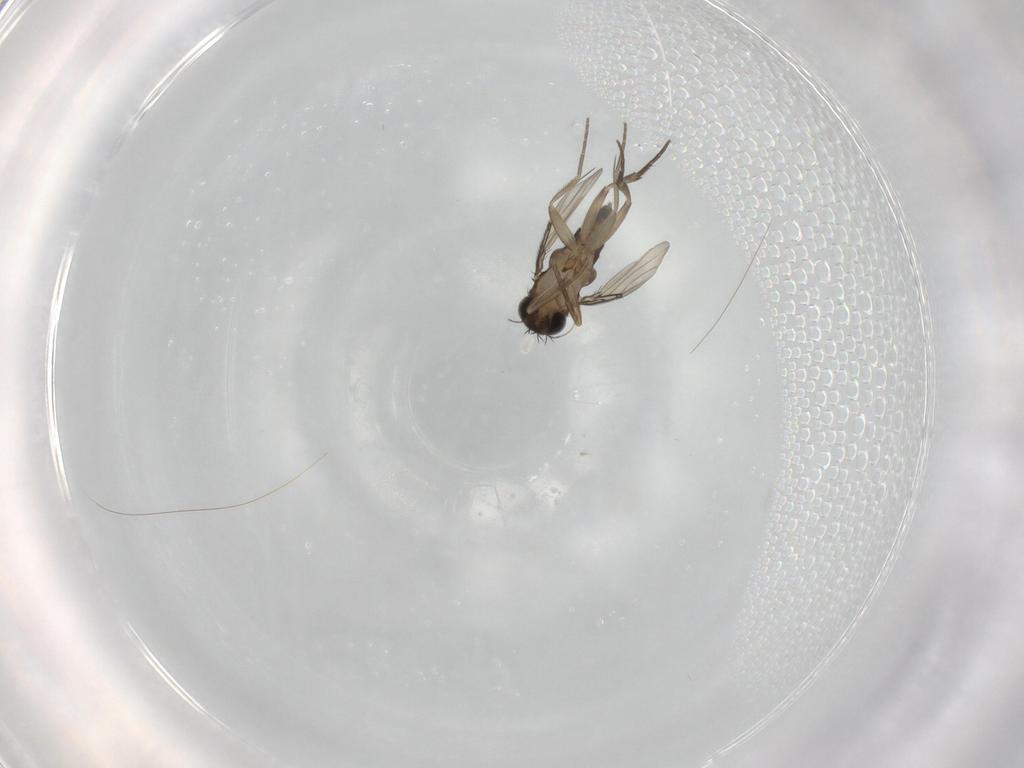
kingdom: Animalia
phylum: Arthropoda
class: Insecta
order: Diptera
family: Phoridae
